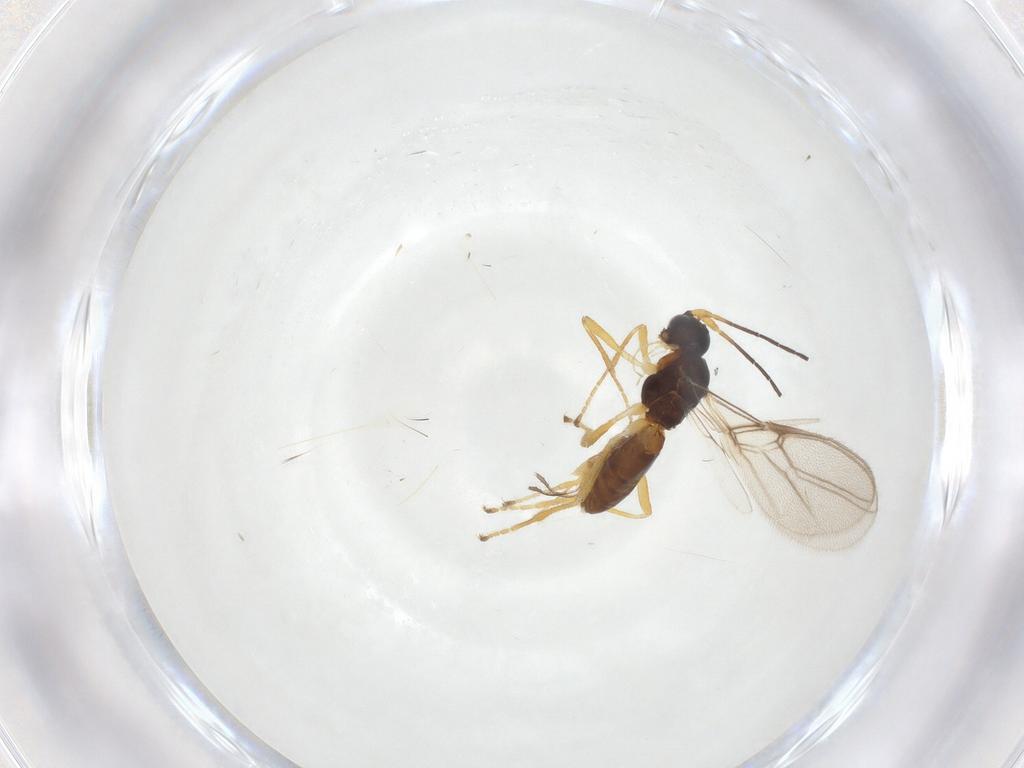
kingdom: Animalia
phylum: Arthropoda
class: Insecta
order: Hymenoptera
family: Braconidae
